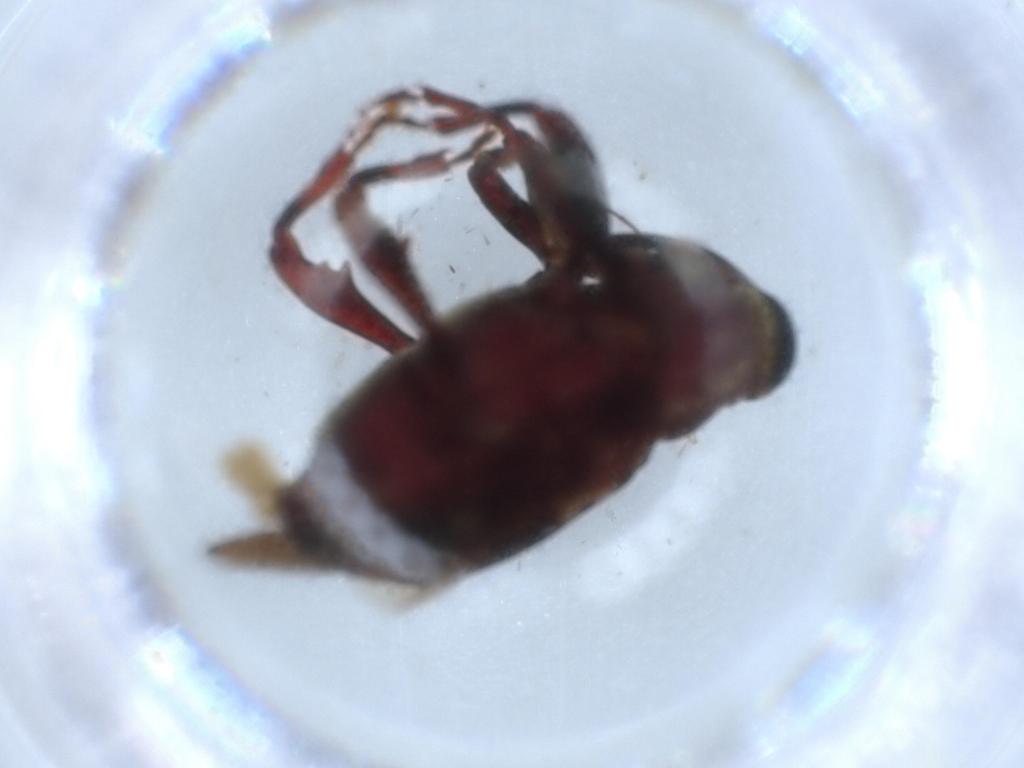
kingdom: Animalia
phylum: Arthropoda
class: Insecta
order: Coleoptera
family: Curculionidae
